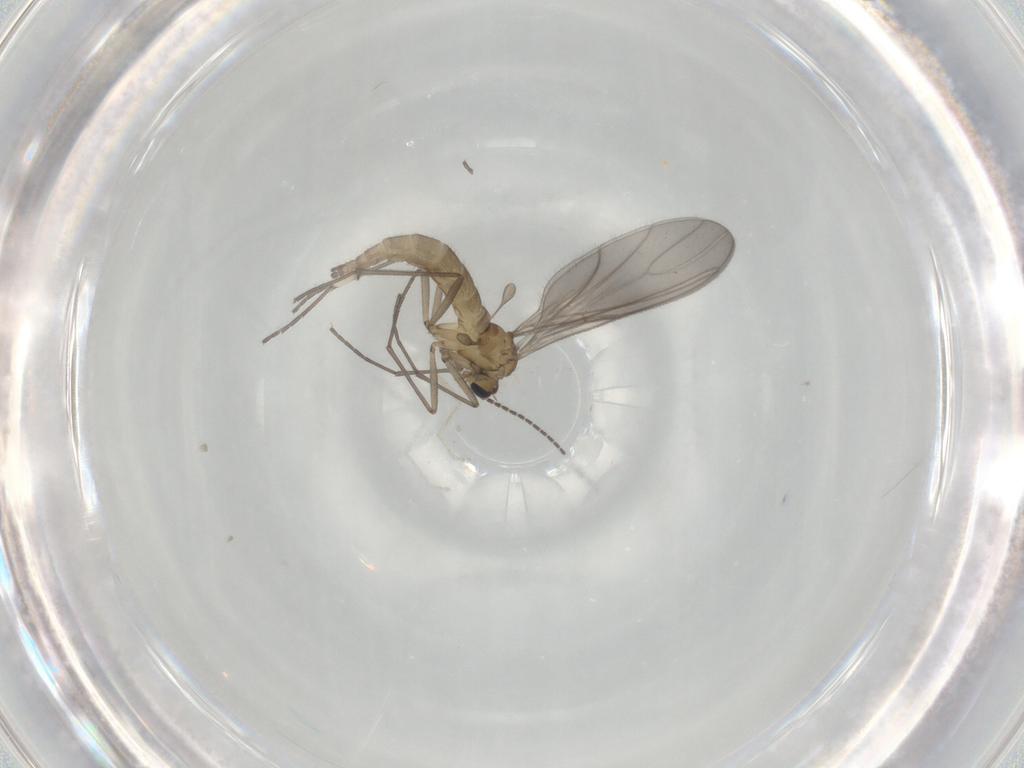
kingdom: Animalia
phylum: Arthropoda
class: Insecta
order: Diptera
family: Sciaridae
